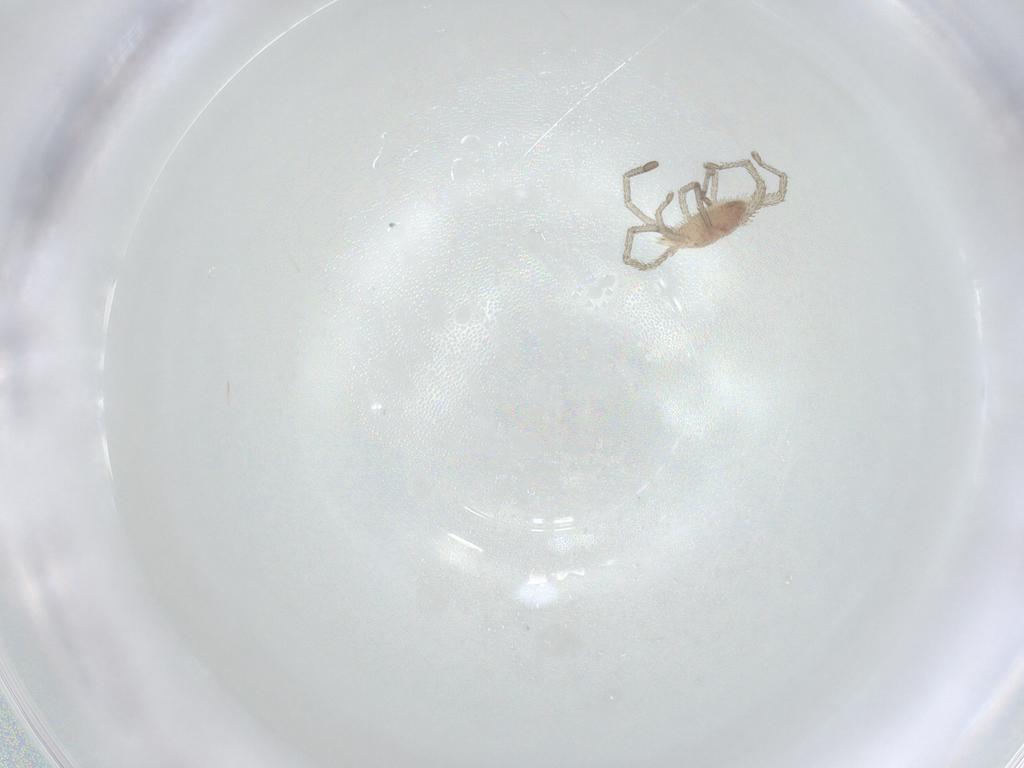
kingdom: Animalia
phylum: Arthropoda
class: Arachnida
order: Trombidiformes
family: Smarididae
